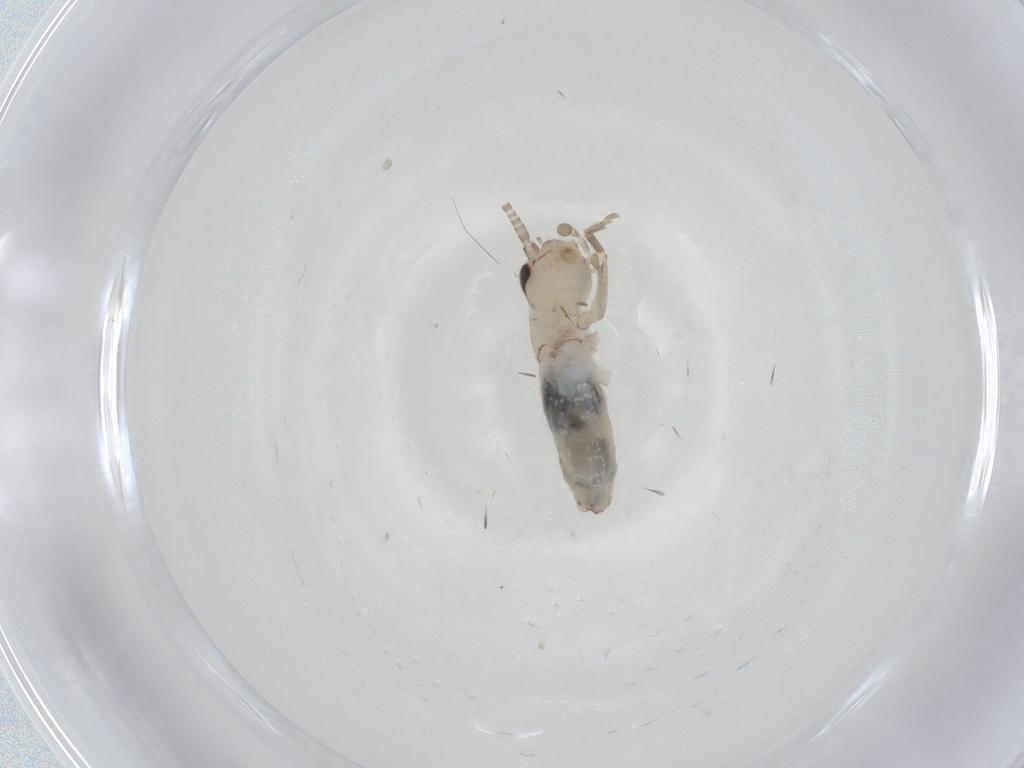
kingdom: Animalia
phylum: Arthropoda
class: Insecta
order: Orthoptera
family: Gryllidae
